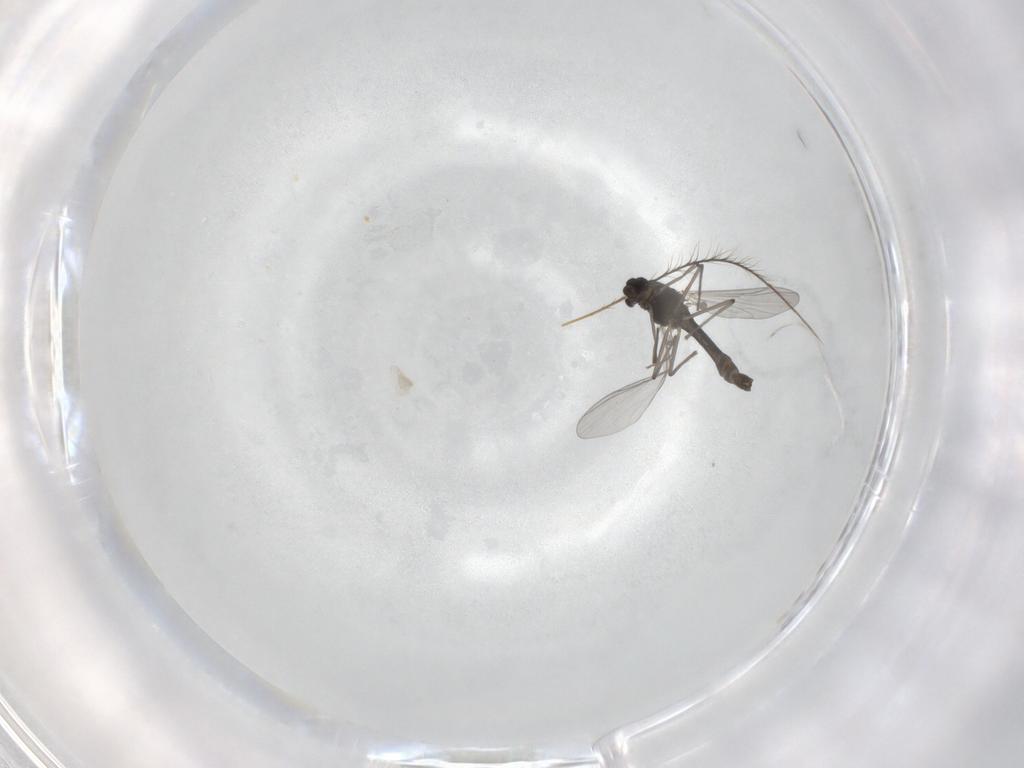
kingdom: Animalia
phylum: Arthropoda
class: Insecta
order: Diptera
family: Chironomidae
